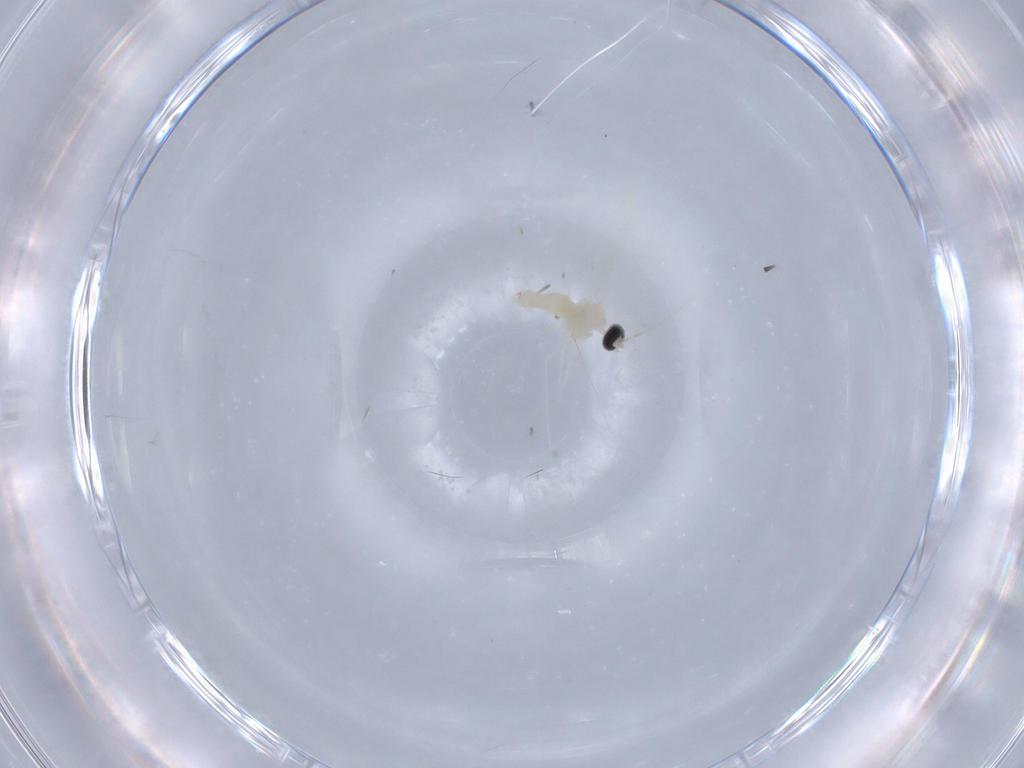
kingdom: Animalia
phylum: Arthropoda
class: Insecta
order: Diptera
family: Cecidomyiidae
